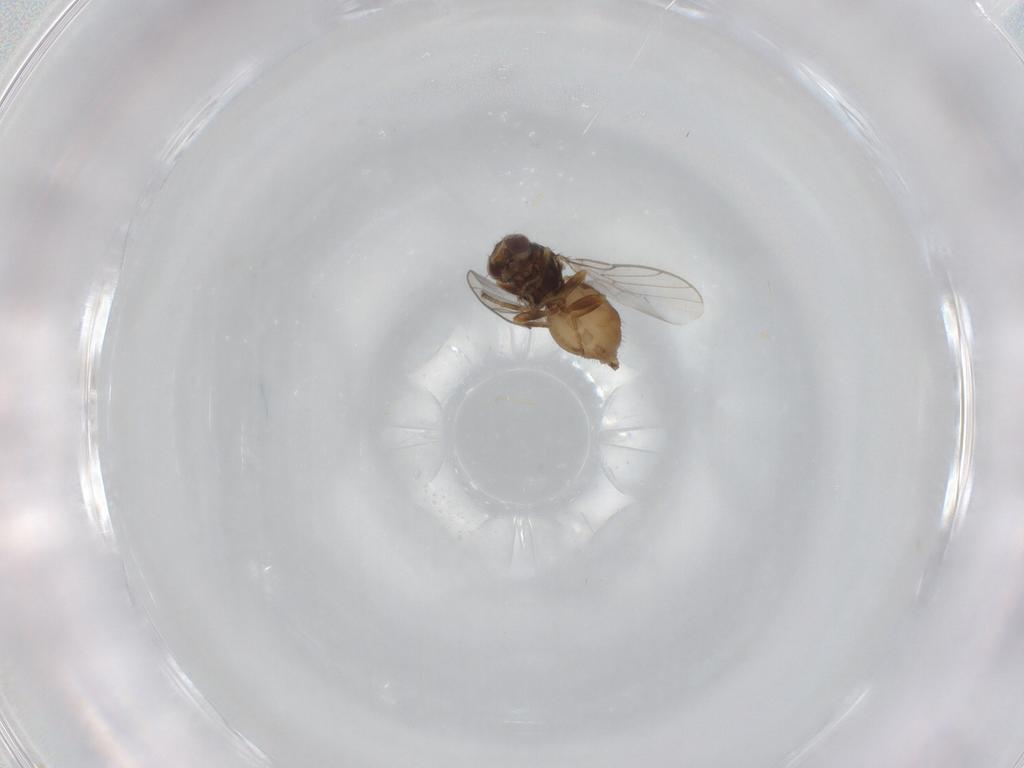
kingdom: Animalia
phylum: Arthropoda
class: Insecta
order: Diptera
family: Chloropidae
